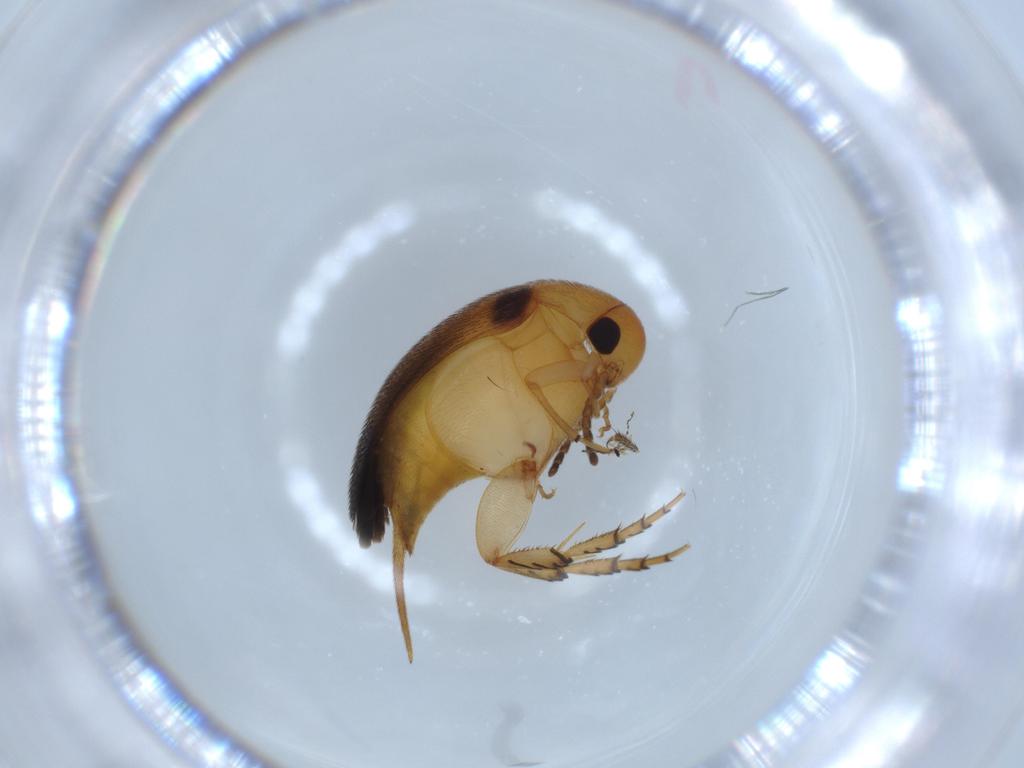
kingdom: Animalia
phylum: Arthropoda
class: Insecta
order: Coleoptera
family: Mordellidae
